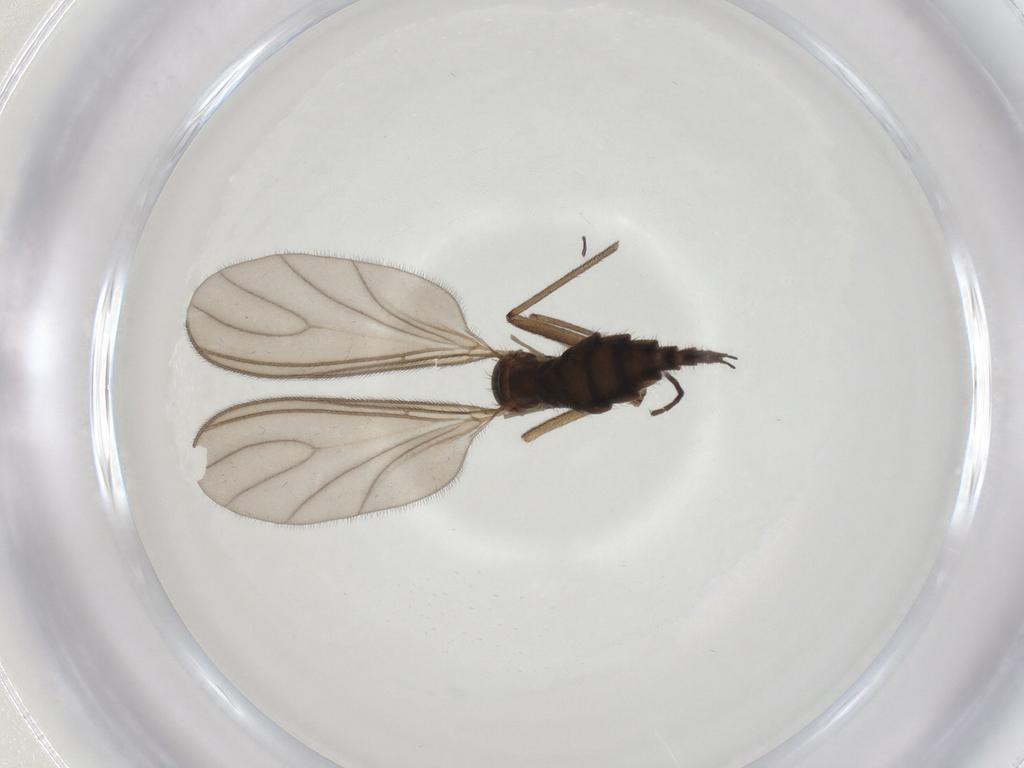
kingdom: Animalia
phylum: Arthropoda
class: Insecta
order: Diptera
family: Sciaridae
